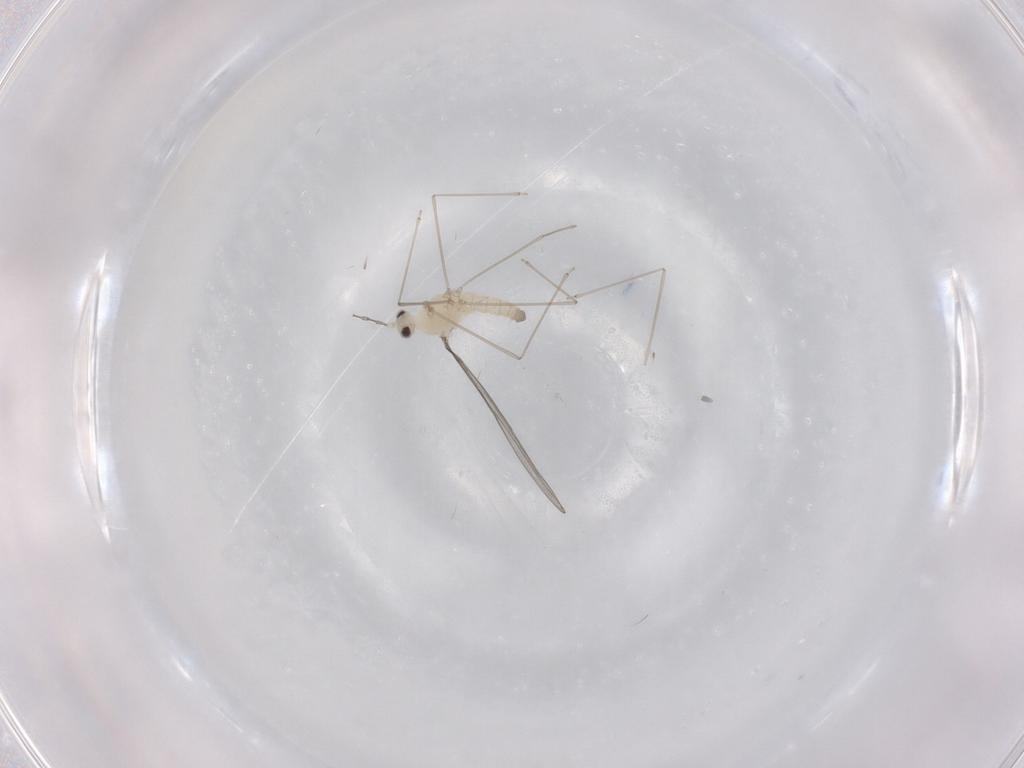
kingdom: Animalia
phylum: Arthropoda
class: Insecta
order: Diptera
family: Cecidomyiidae
